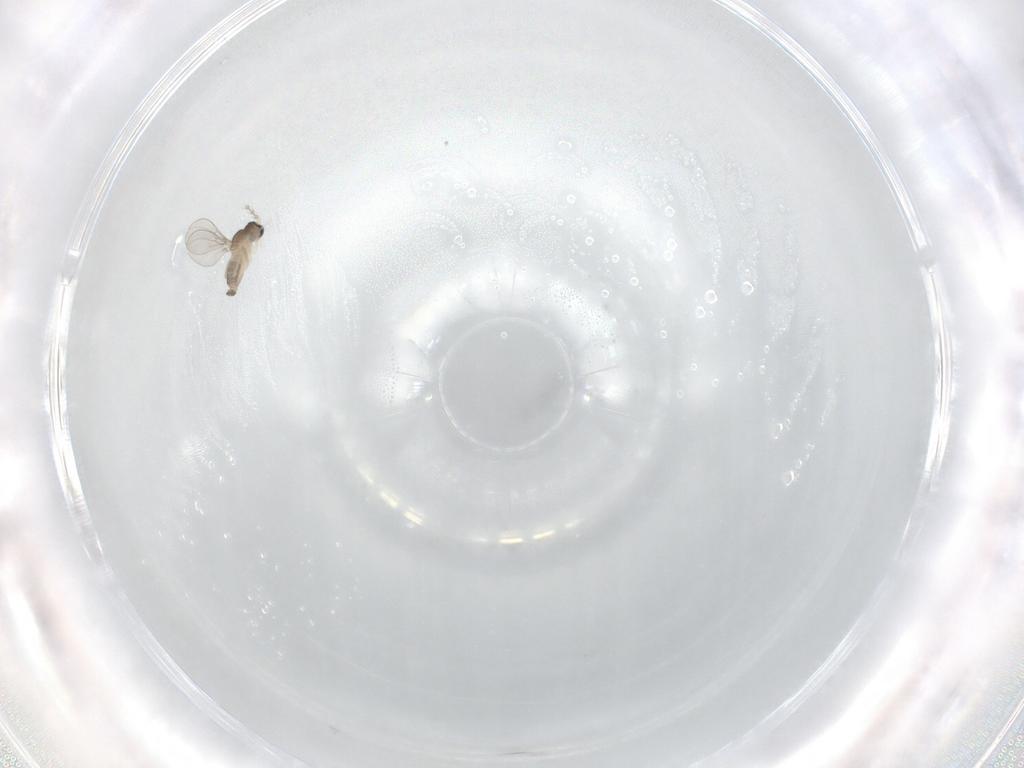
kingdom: Animalia
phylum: Arthropoda
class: Insecta
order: Diptera
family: Cecidomyiidae
